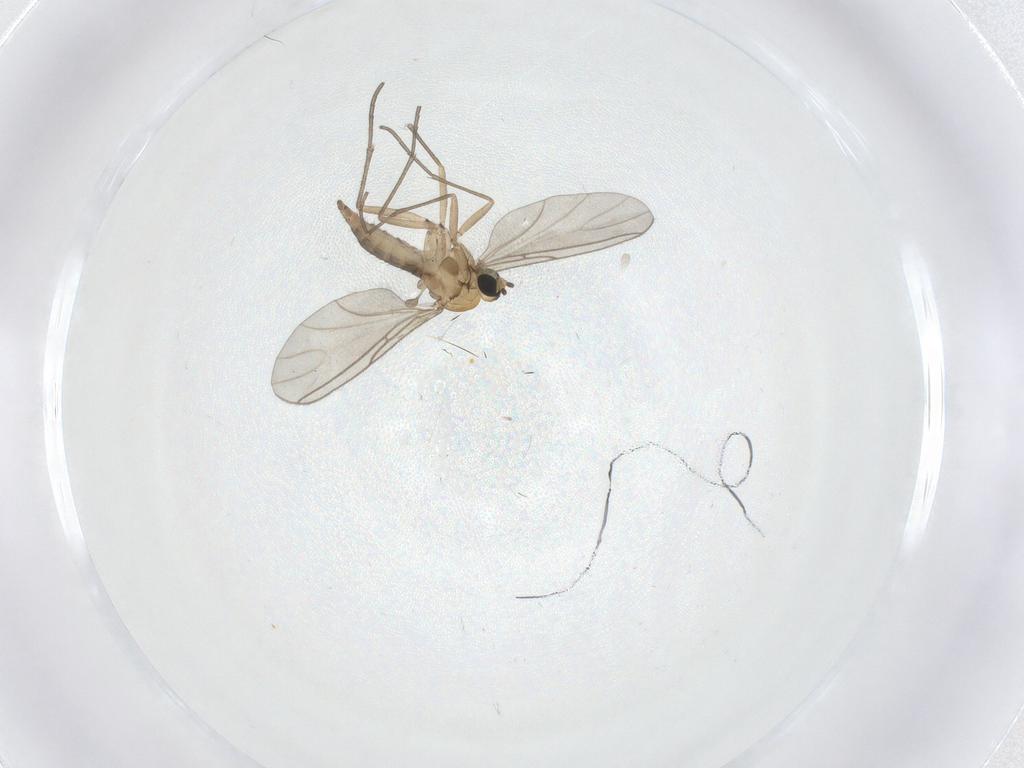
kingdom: Animalia
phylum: Arthropoda
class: Insecta
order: Diptera
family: Sciaridae
